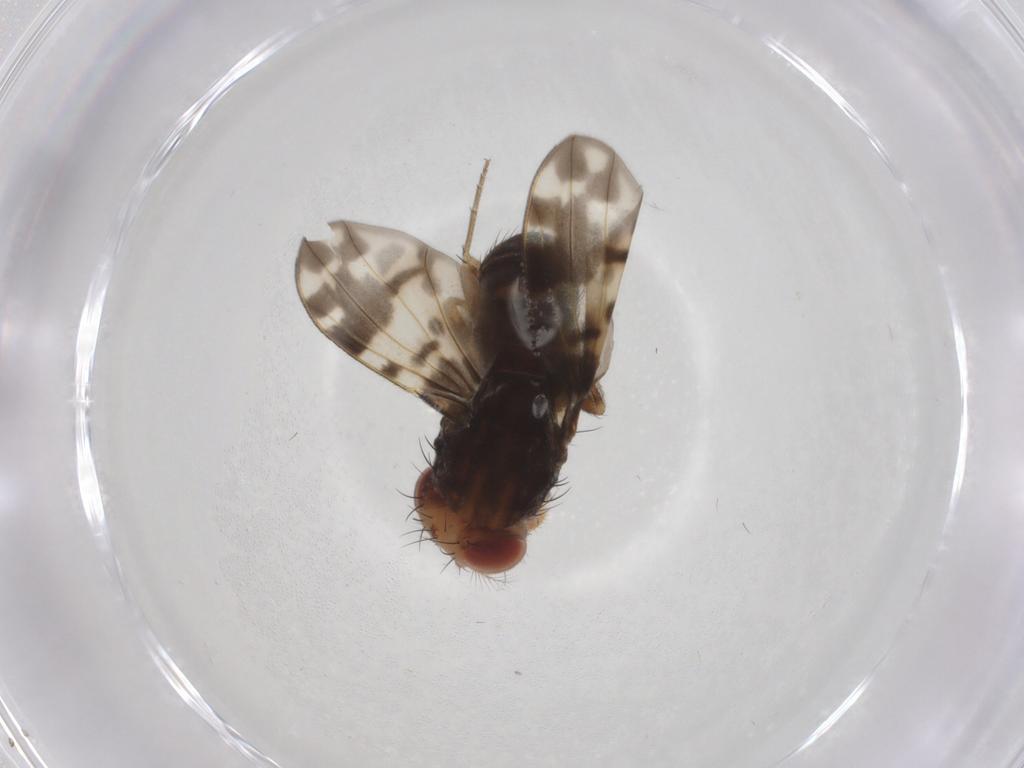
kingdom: Animalia
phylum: Arthropoda
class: Insecta
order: Diptera
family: Drosophilidae
